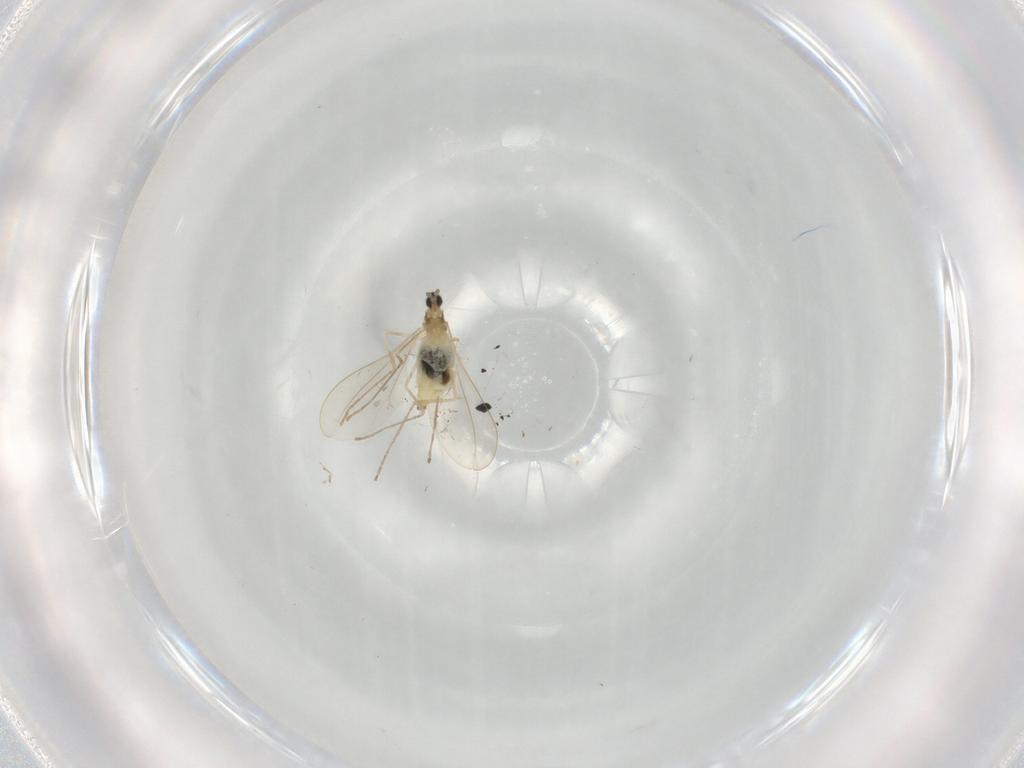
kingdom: Animalia
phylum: Arthropoda
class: Insecta
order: Diptera
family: Cecidomyiidae
